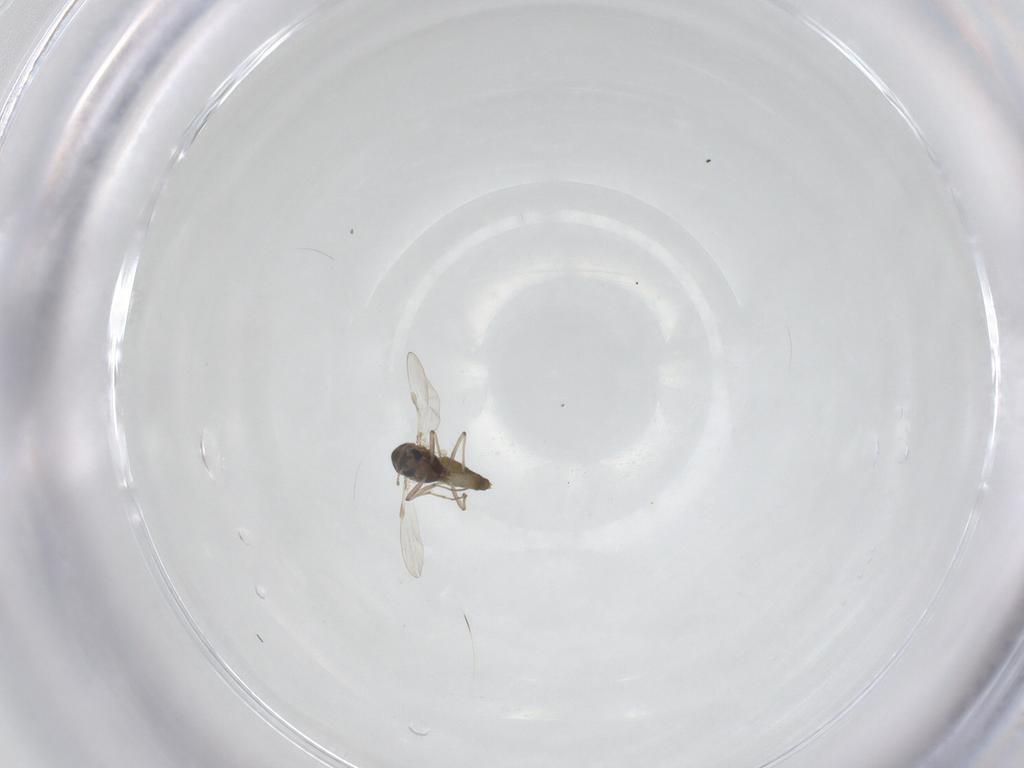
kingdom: Animalia
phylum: Arthropoda
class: Insecta
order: Diptera
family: Chironomidae
